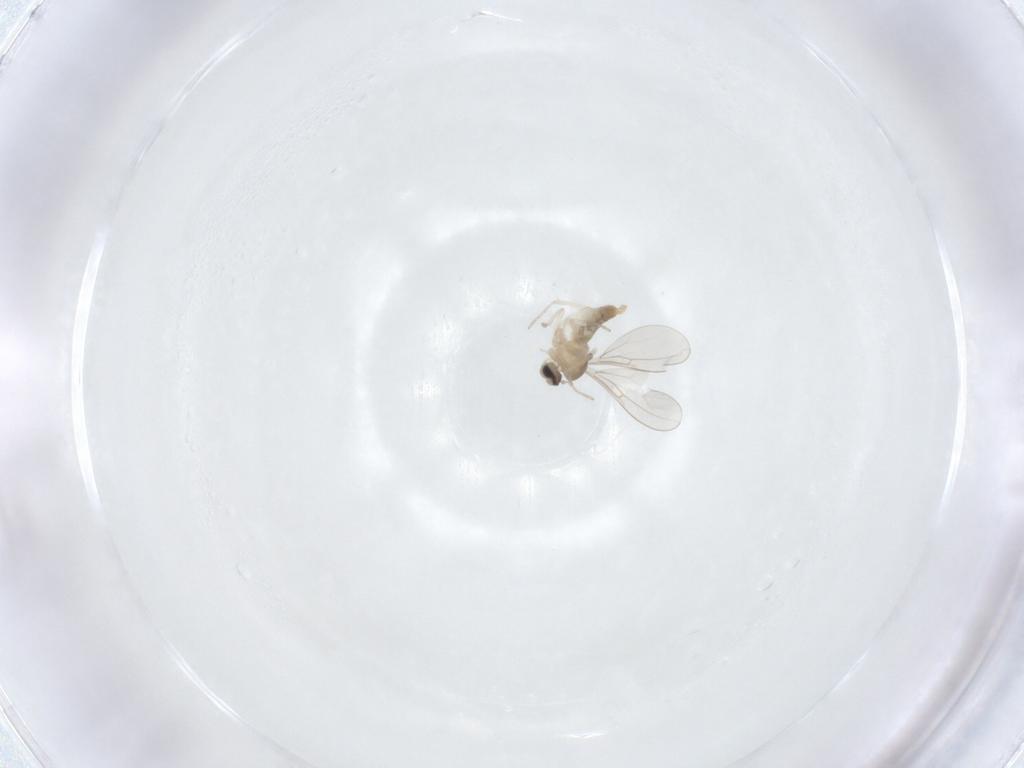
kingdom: Animalia
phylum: Arthropoda
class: Insecta
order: Diptera
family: Cecidomyiidae
